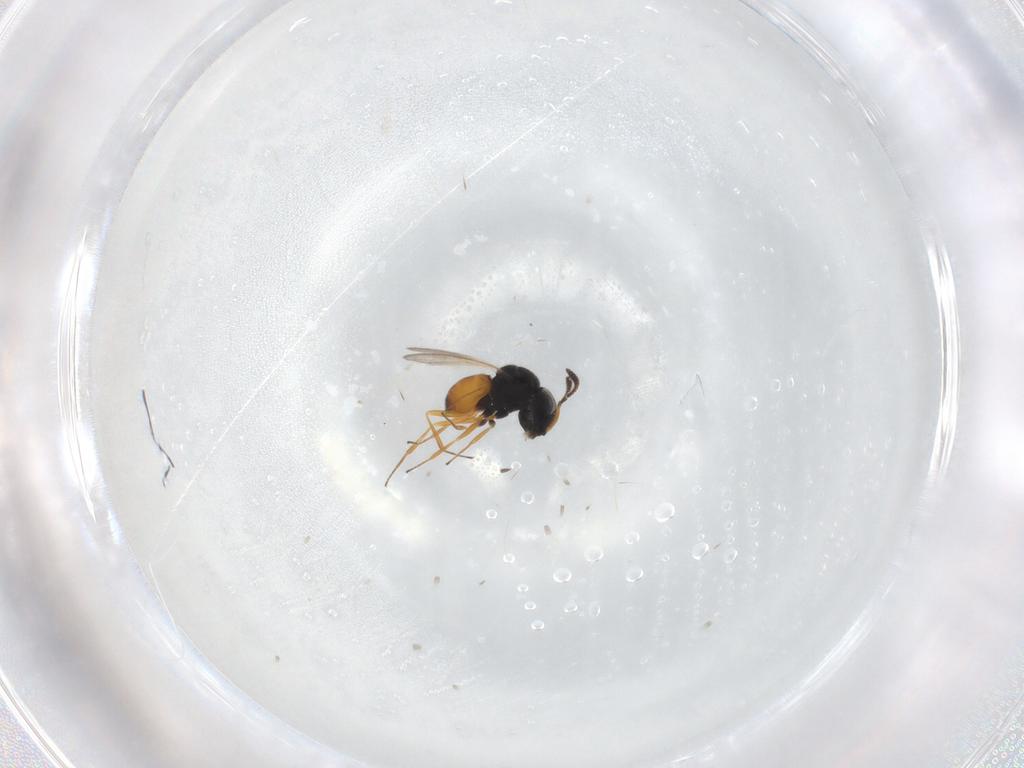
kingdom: Animalia
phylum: Arthropoda
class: Insecta
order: Hymenoptera
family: Scelionidae
